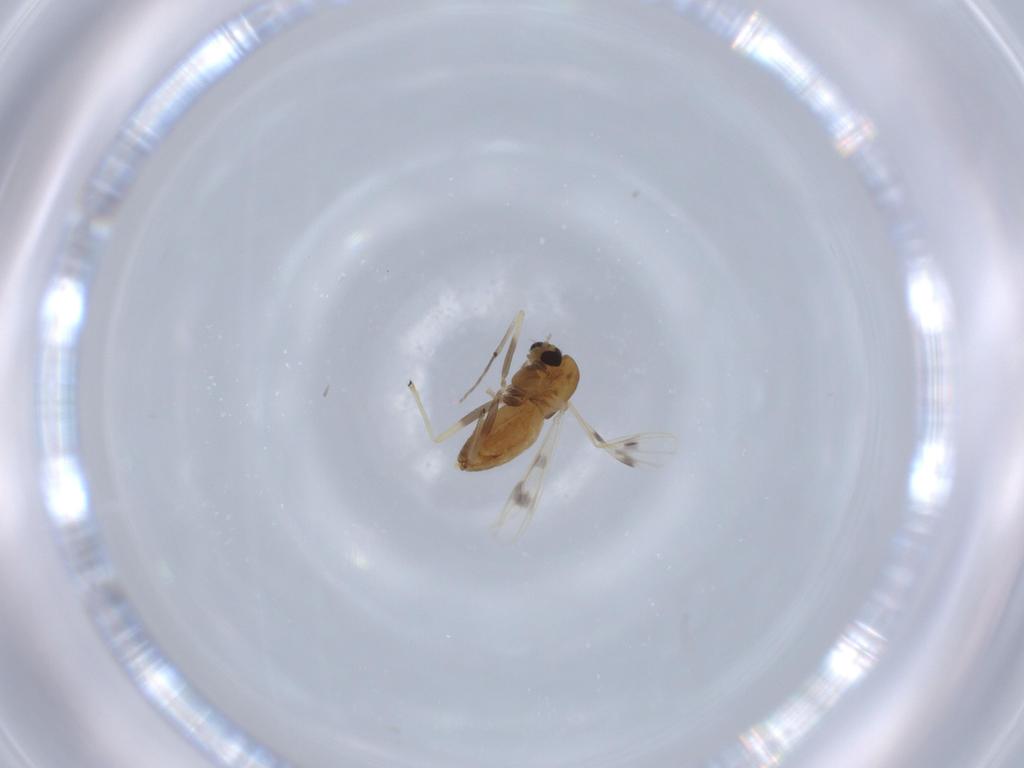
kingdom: Animalia
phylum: Arthropoda
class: Insecta
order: Diptera
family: Chironomidae
